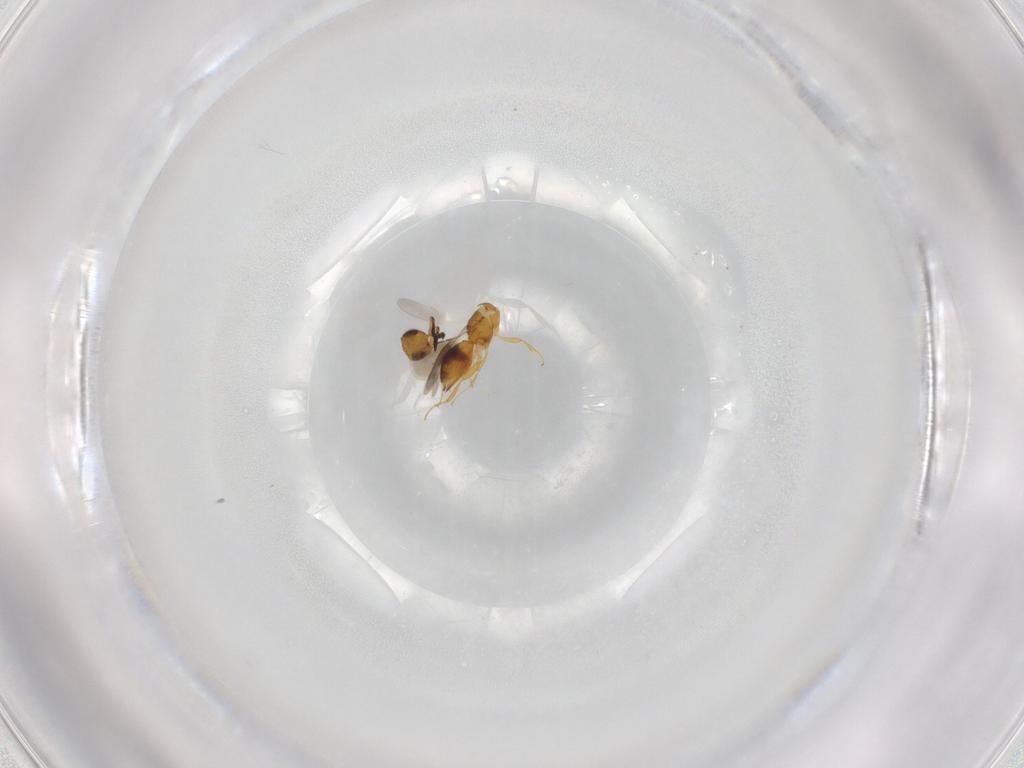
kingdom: Animalia
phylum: Arthropoda
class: Insecta
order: Hymenoptera
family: Ceraphronidae
